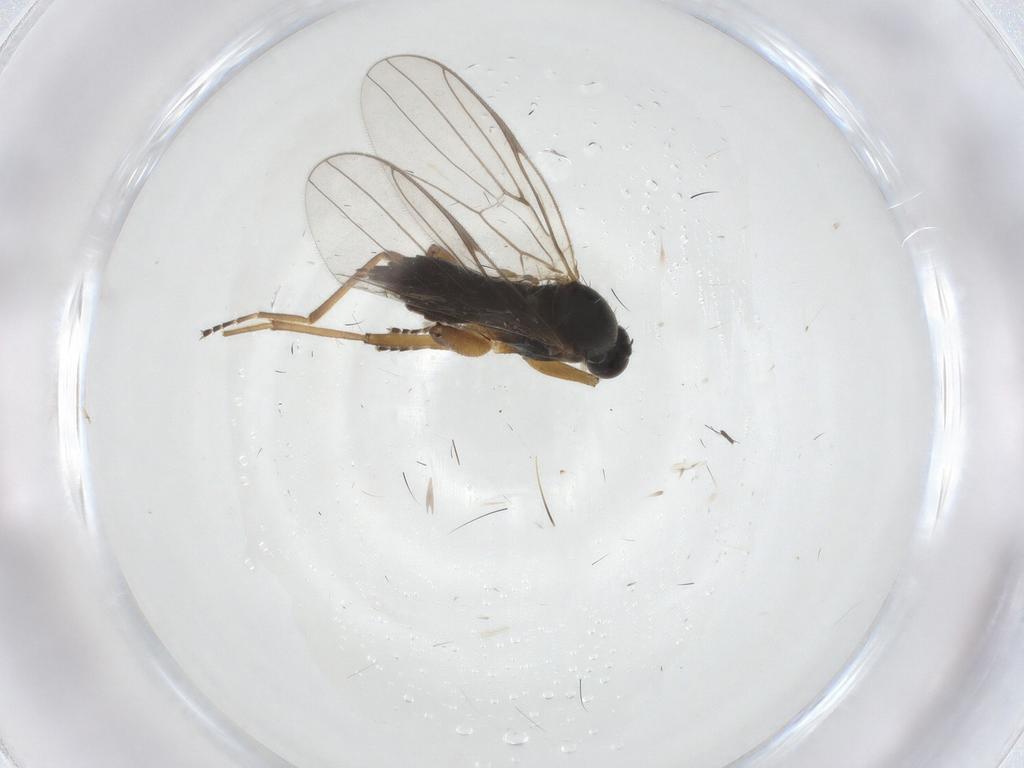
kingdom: Animalia
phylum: Arthropoda
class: Insecta
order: Diptera
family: Hybotidae
